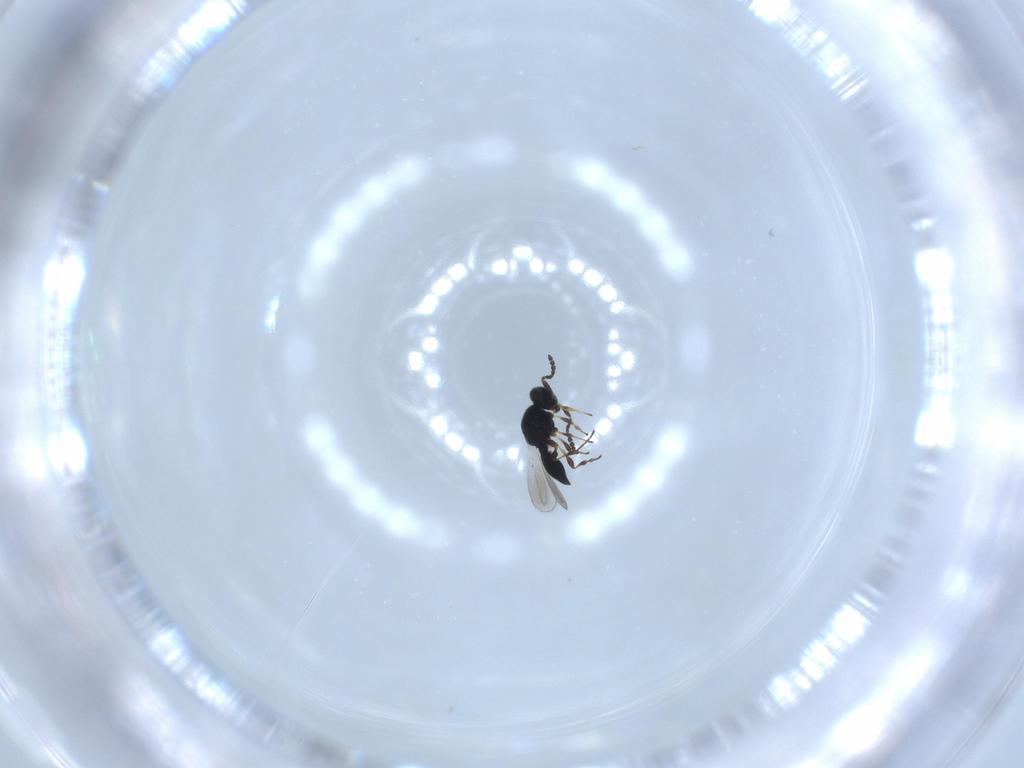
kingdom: Animalia
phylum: Arthropoda
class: Insecta
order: Hymenoptera
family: Platygastridae
